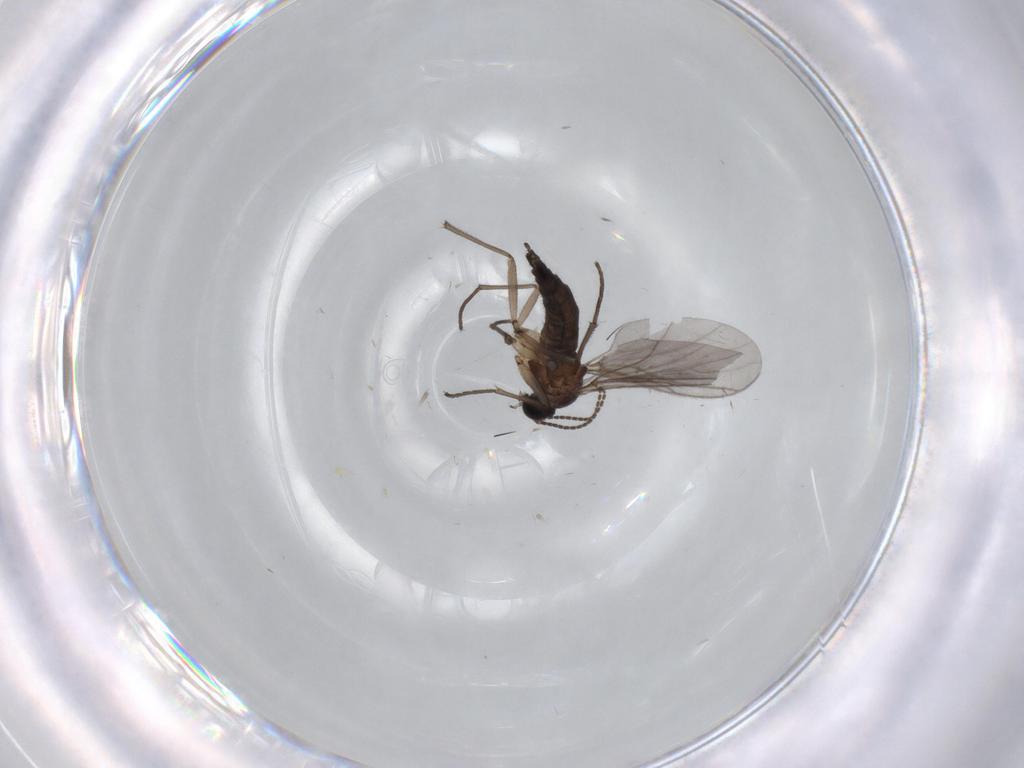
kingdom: Animalia
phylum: Arthropoda
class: Insecta
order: Diptera
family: Sciaridae
